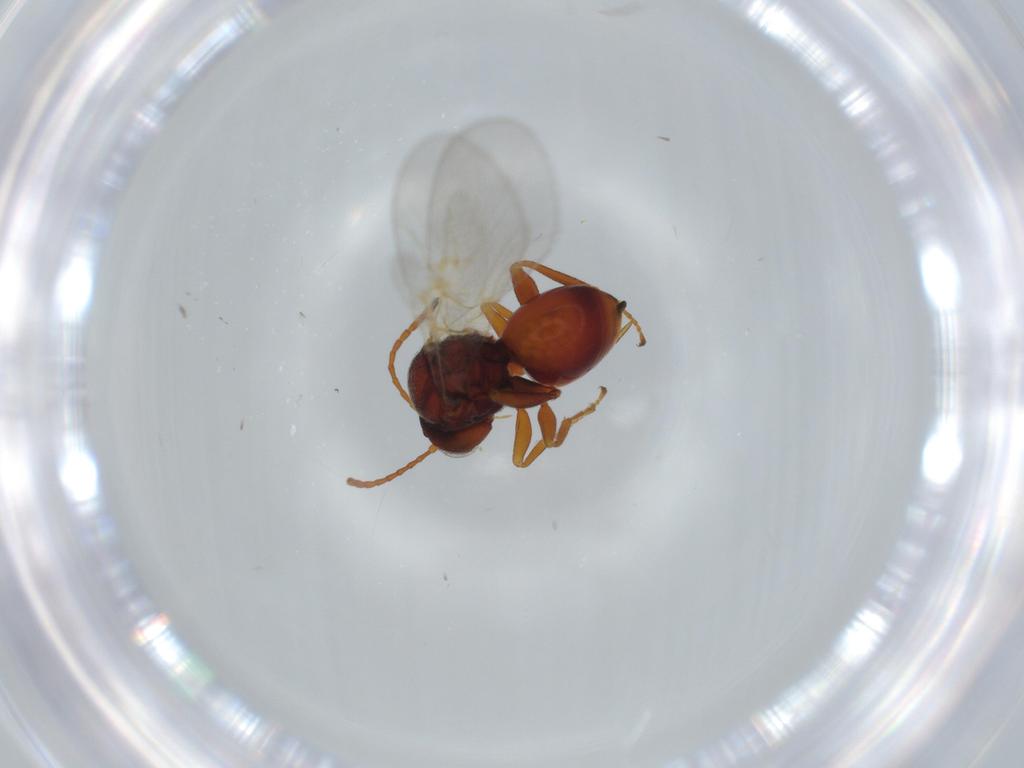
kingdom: Animalia
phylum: Arthropoda
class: Insecta
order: Hymenoptera
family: Cynipidae
